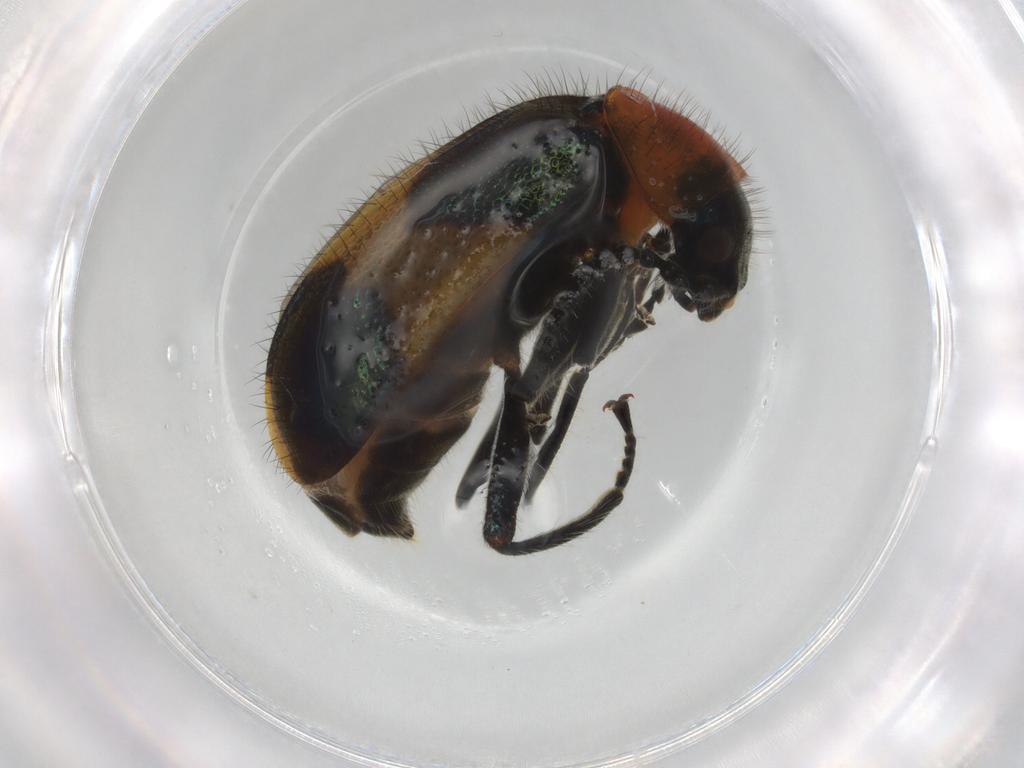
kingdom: Animalia
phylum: Arthropoda
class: Insecta
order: Coleoptera
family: Melyridae
